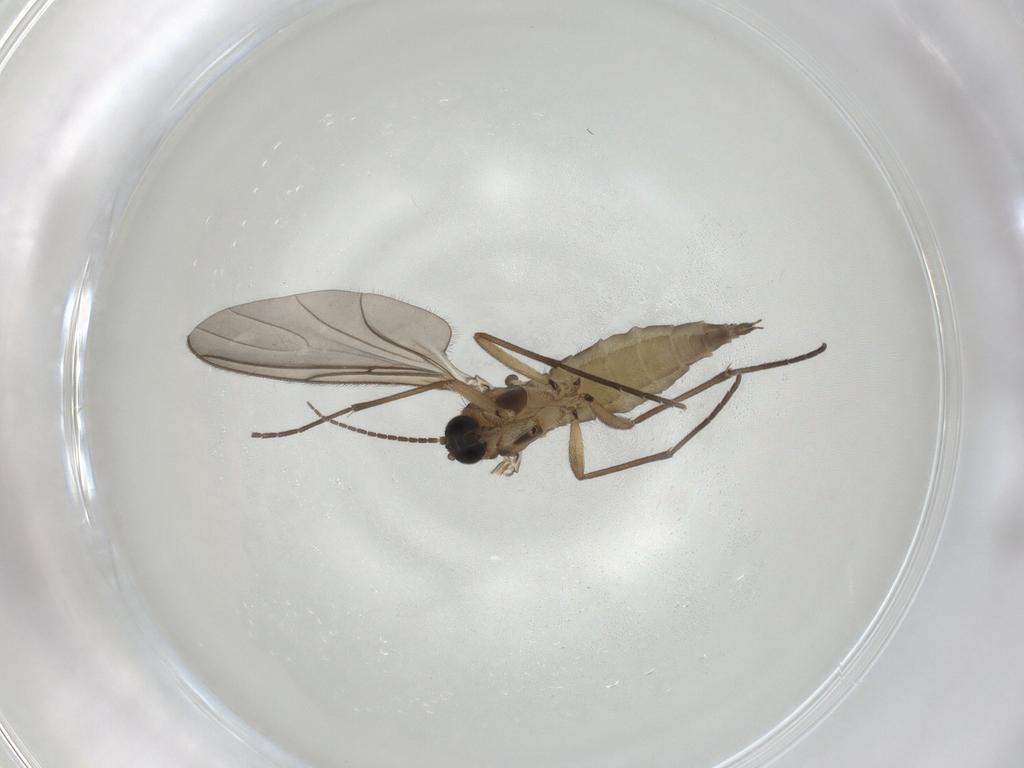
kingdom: Animalia
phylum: Arthropoda
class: Insecta
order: Diptera
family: Sciaridae
